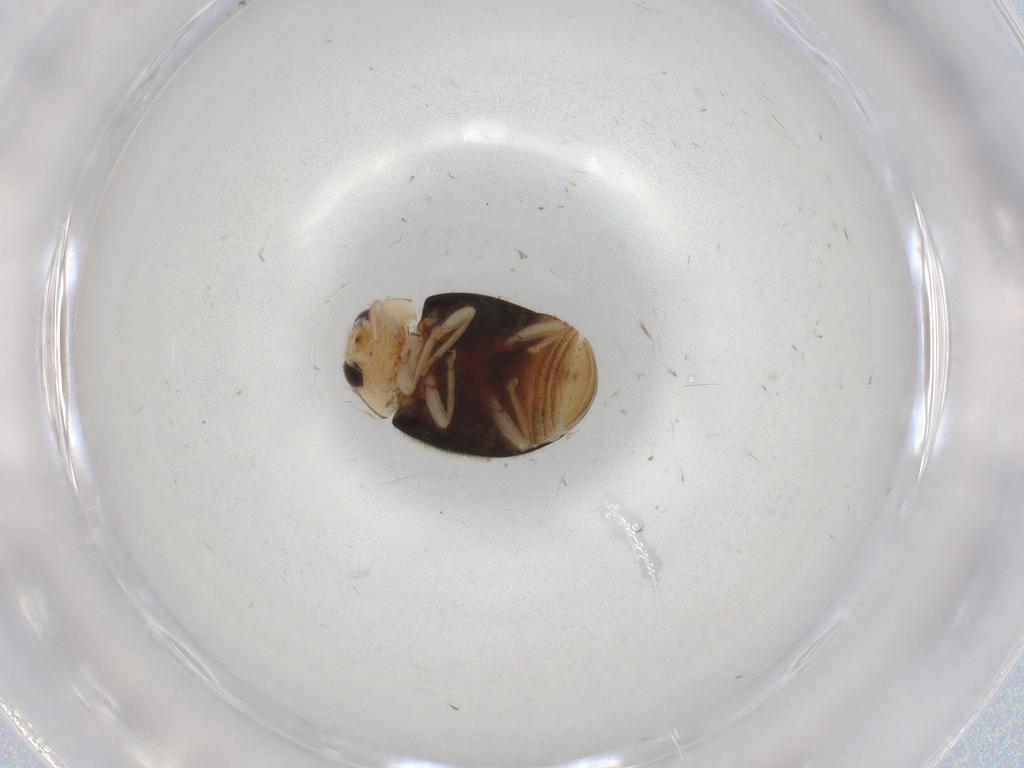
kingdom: Animalia
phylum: Arthropoda
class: Insecta
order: Coleoptera
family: Coccinellidae
